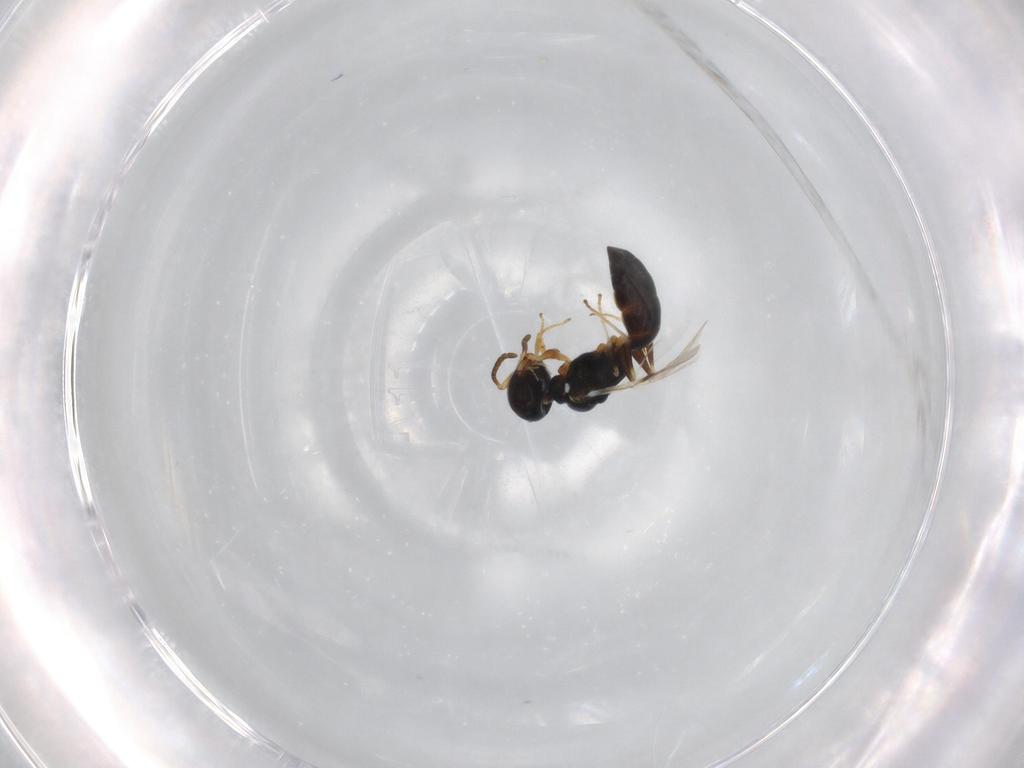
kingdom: Animalia
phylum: Arthropoda
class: Insecta
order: Hymenoptera
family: Pemphredonidae
